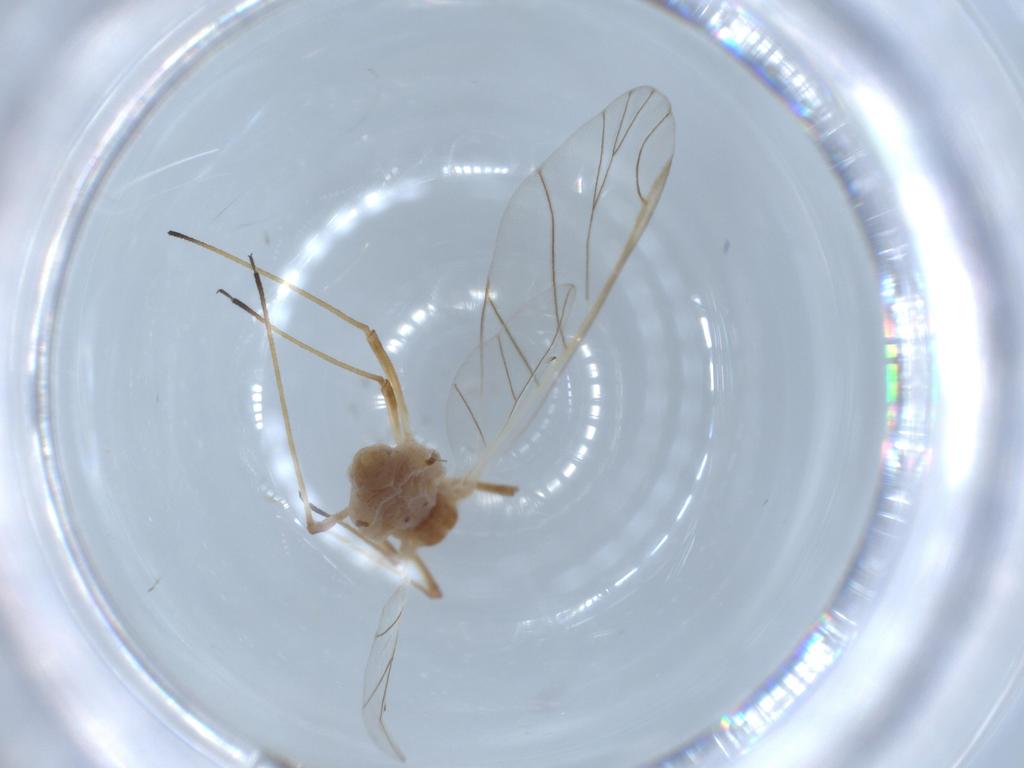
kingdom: Animalia
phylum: Arthropoda
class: Insecta
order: Hemiptera
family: Aphididae
